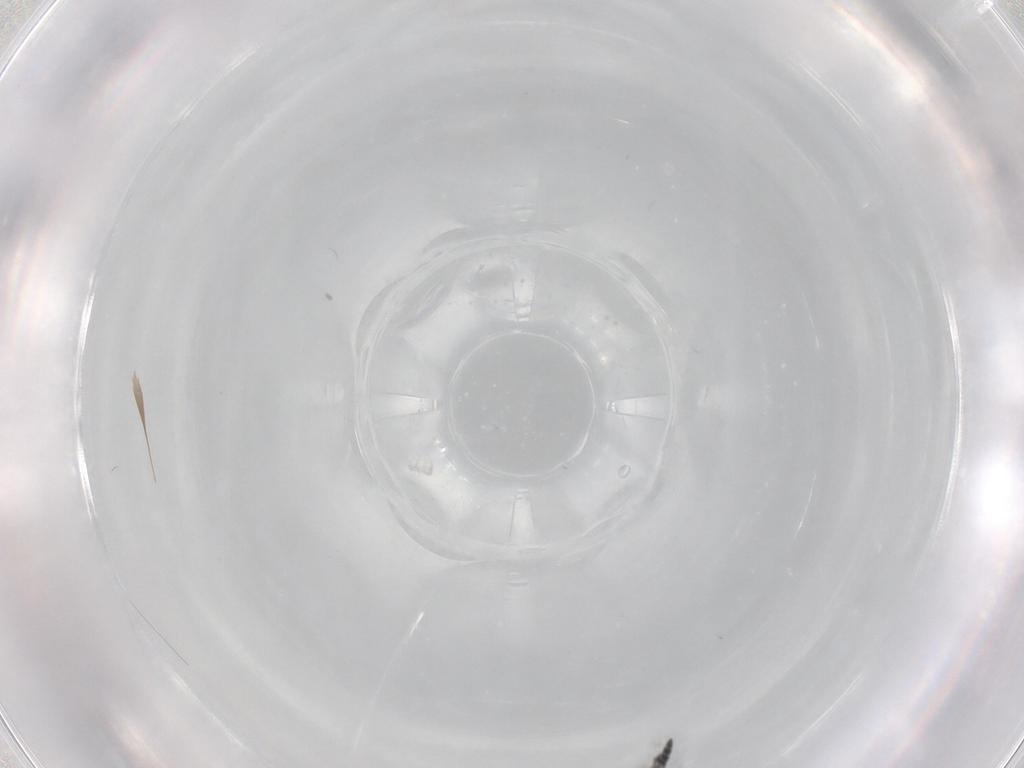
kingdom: Animalia
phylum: Arthropoda
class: Insecta
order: Hymenoptera
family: Scelionidae
